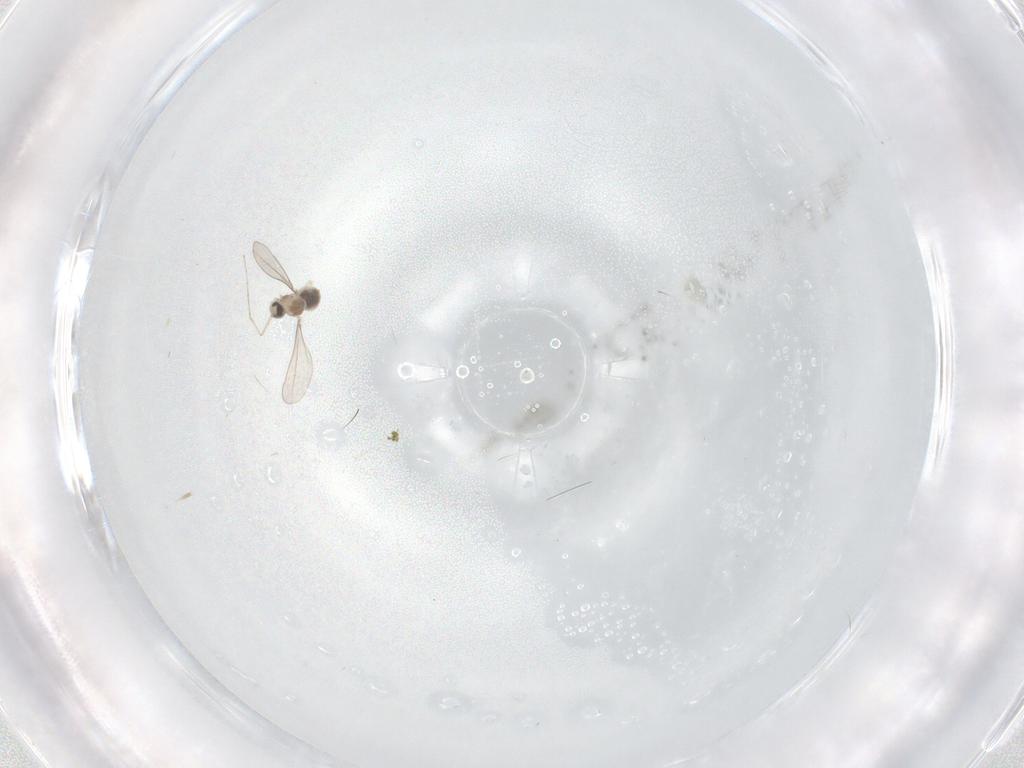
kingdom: Animalia
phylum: Arthropoda
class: Insecta
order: Diptera
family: Cecidomyiidae
